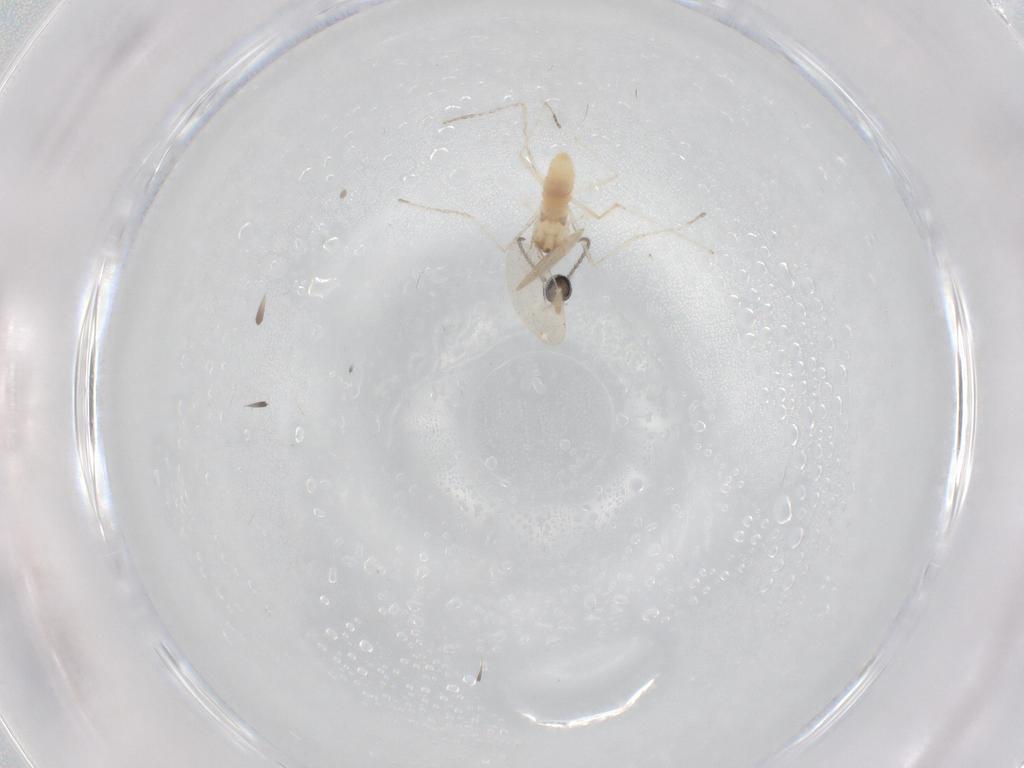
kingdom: Animalia
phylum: Arthropoda
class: Insecta
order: Diptera
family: Cecidomyiidae
